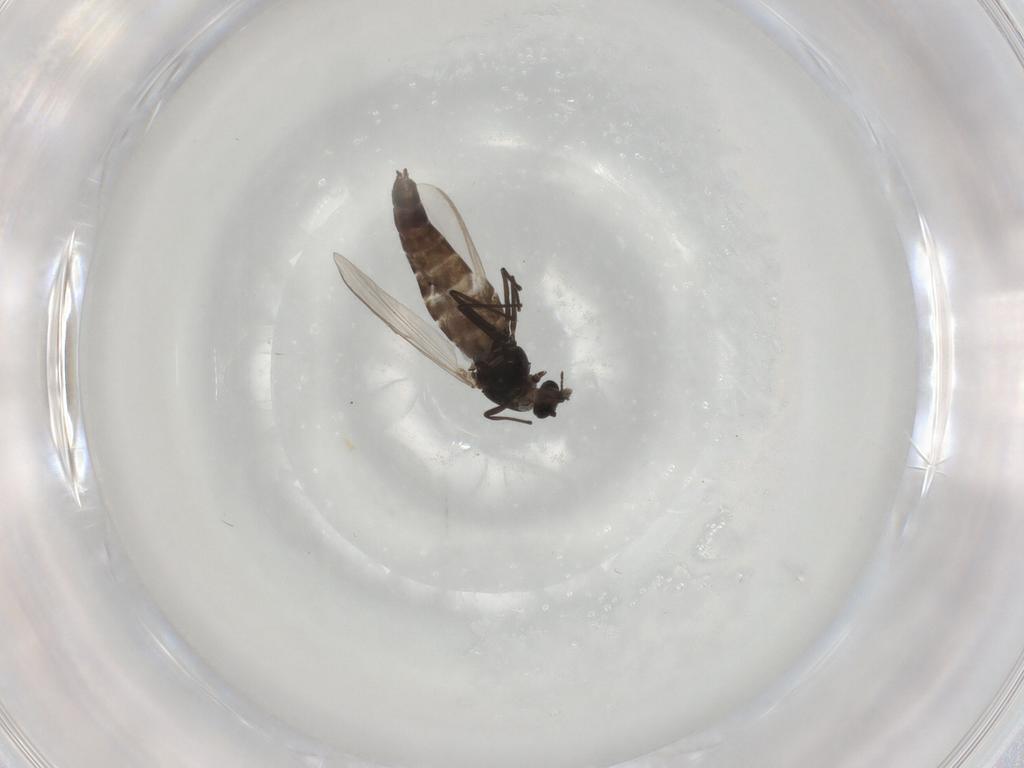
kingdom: Animalia
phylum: Arthropoda
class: Insecta
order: Diptera
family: Chironomidae
